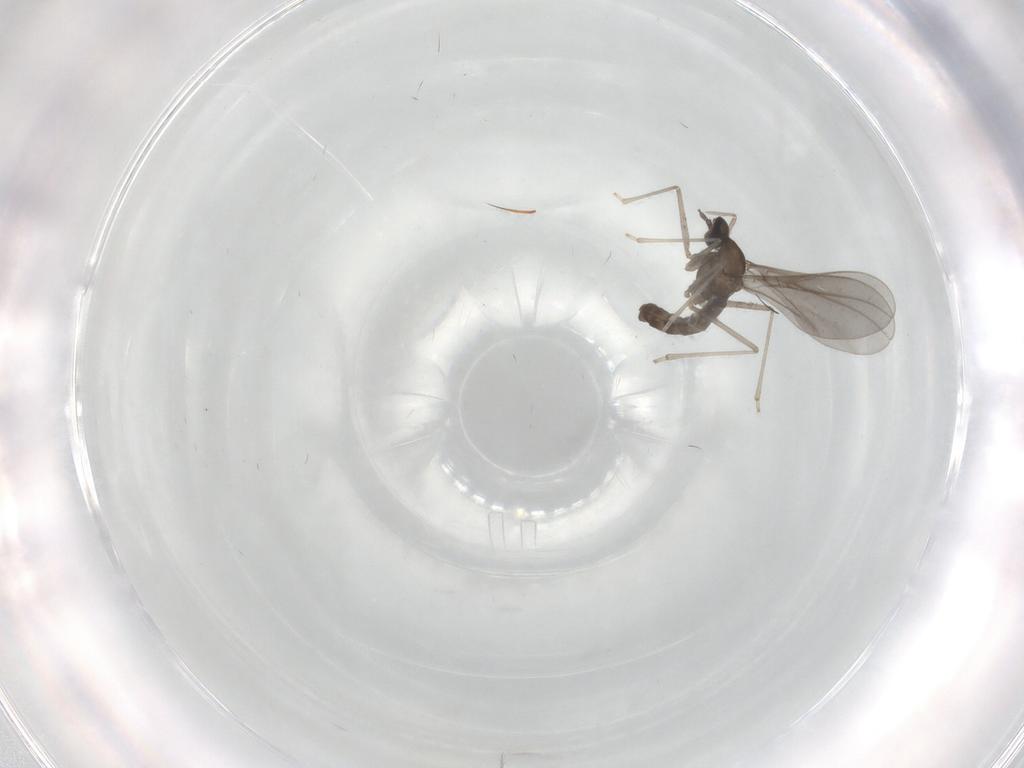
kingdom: Animalia
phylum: Arthropoda
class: Insecta
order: Diptera
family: Cecidomyiidae
